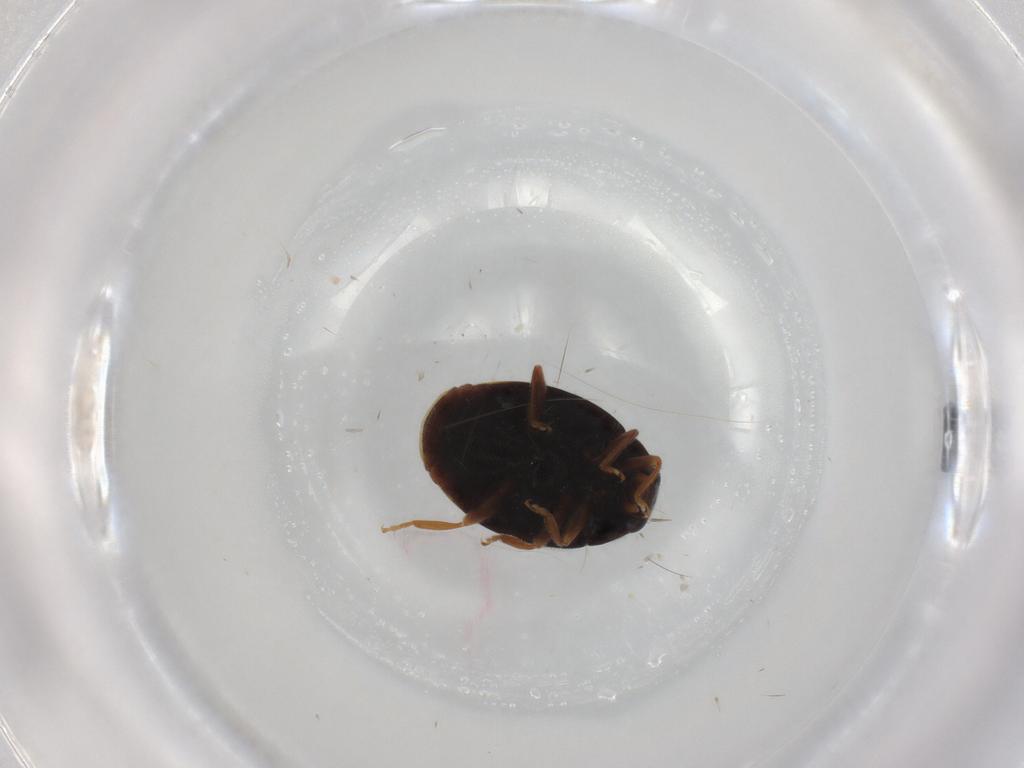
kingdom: Animalia
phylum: Arthropoda
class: Insecta
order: Coleoptera
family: Coccinellidae
